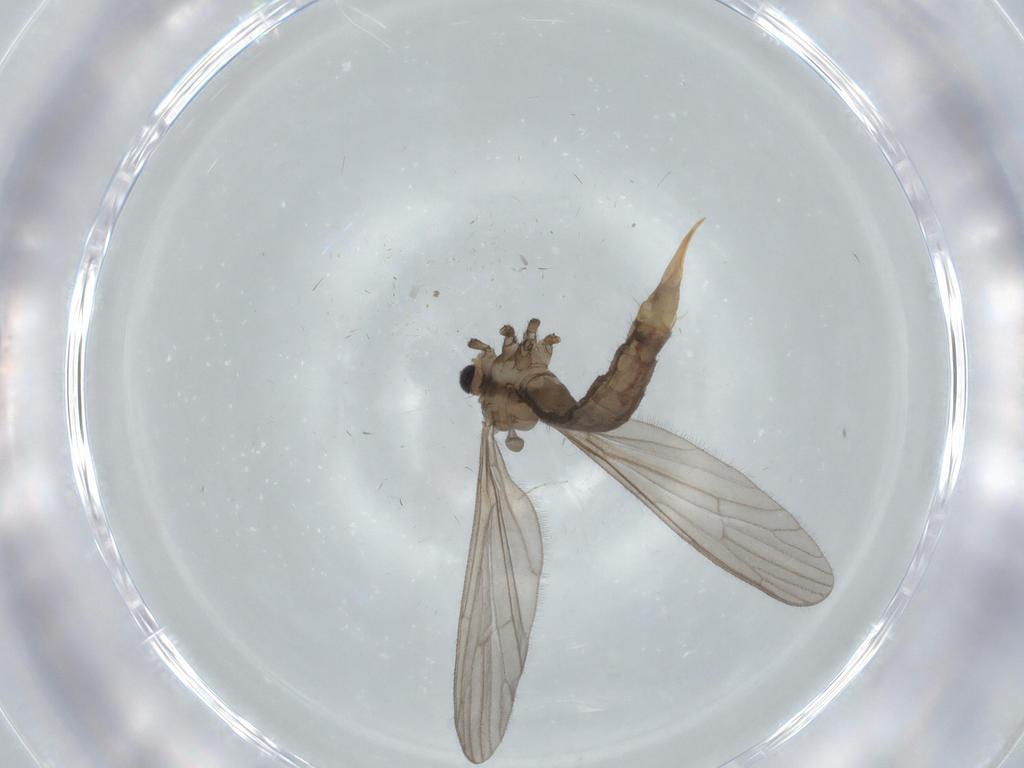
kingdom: Animalia
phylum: Arthropoda
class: Insecta
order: Diptera
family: Limoniidae
